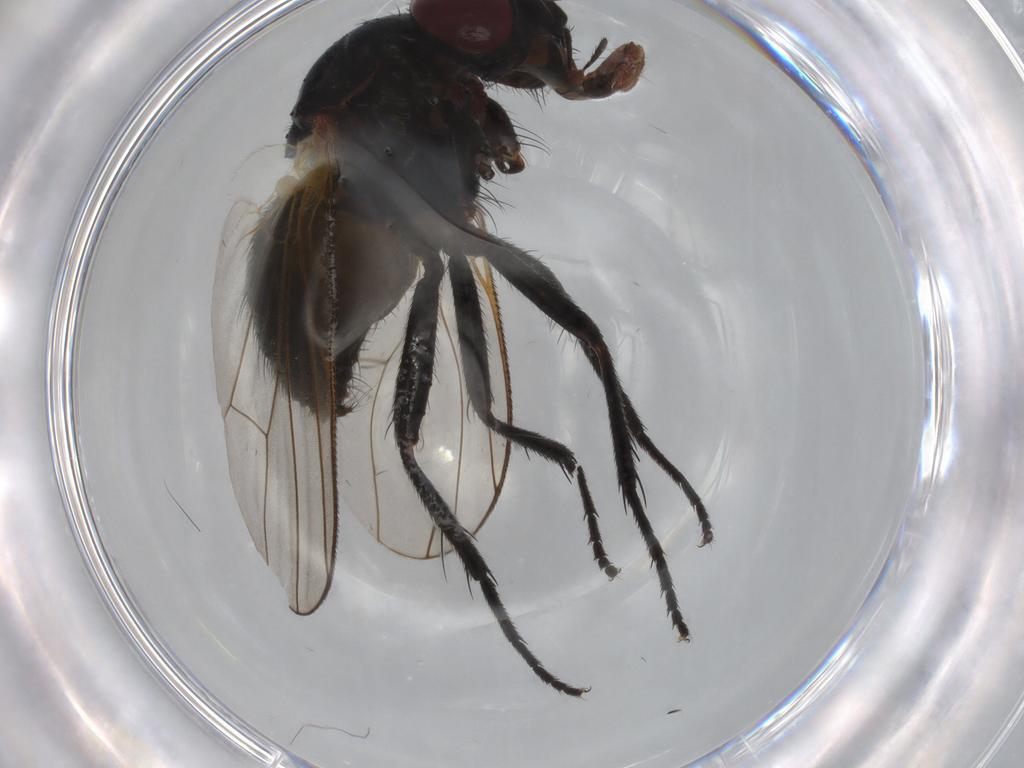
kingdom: Animalia
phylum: Arthropoda
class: Insecta
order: Diptera
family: Fannia
